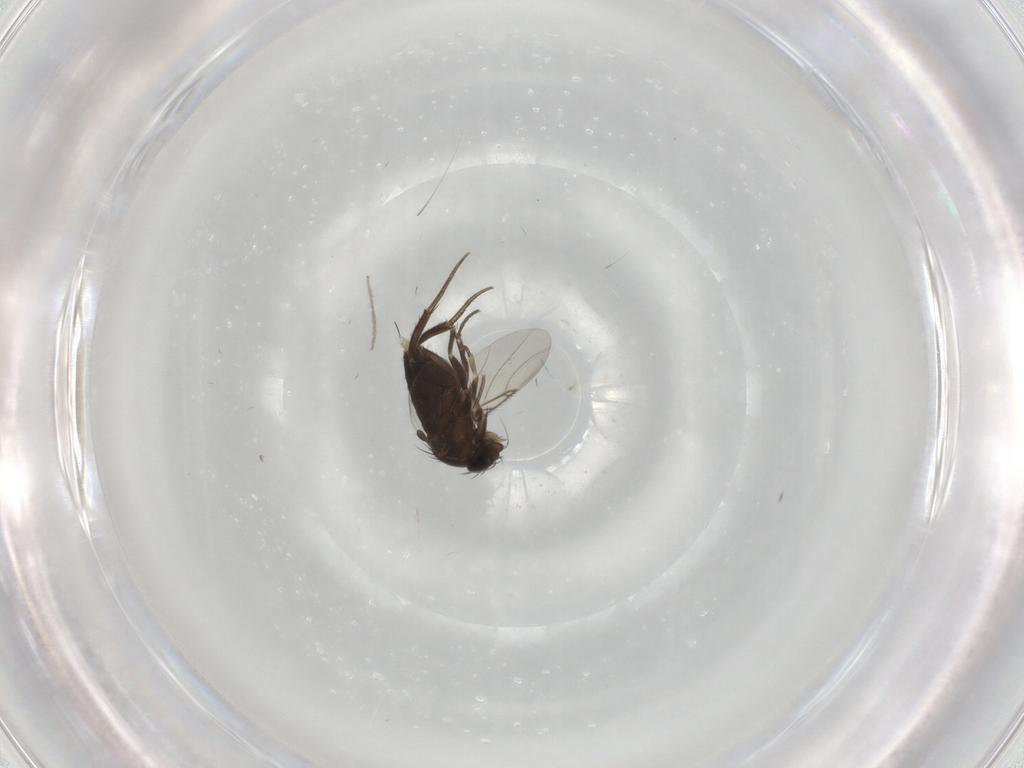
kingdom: Animalia
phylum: Arthropoda
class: Insecta
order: Diptera
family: Phoridae
